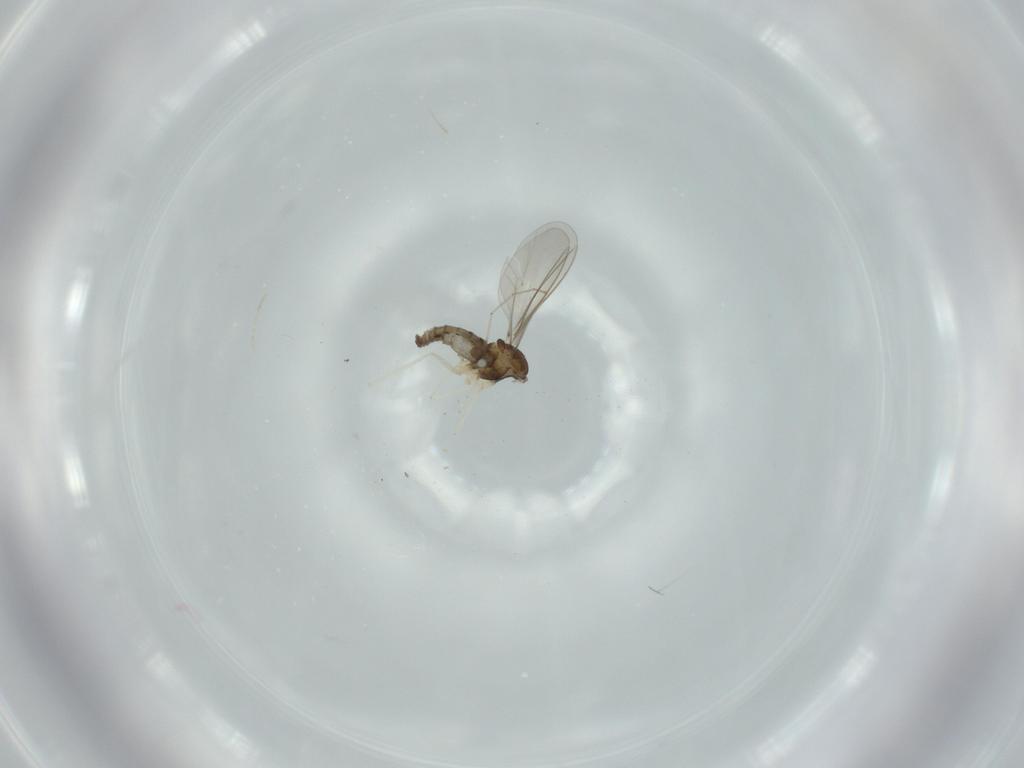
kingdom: Animalia
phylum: Arthropoda
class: Insecta
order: Diptera
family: Cecidomyiidae
